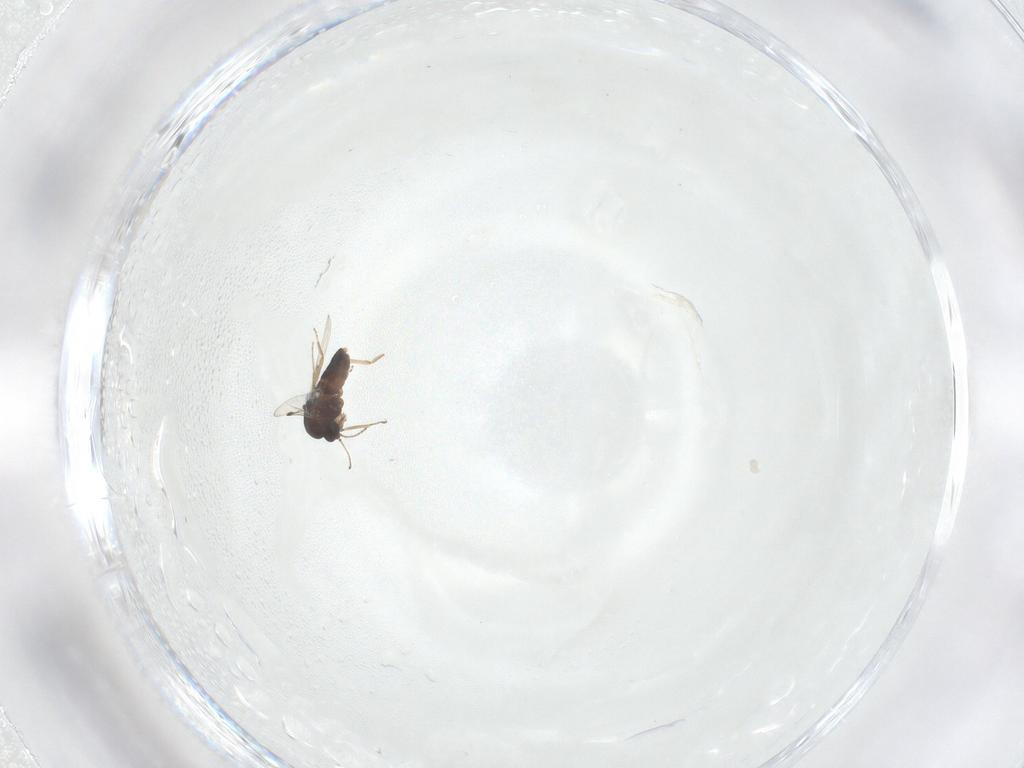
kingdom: Animalia
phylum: Arthropoda
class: Insecta
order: Diptera
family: Ceratopogonidae
